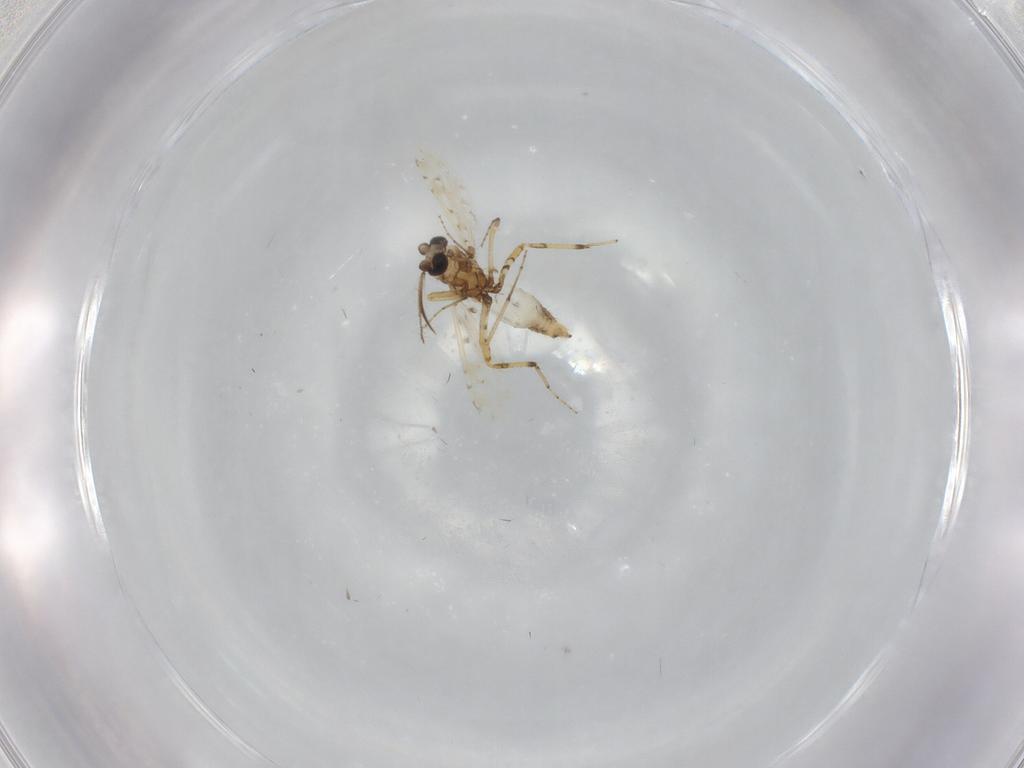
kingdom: Animalia
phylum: Arthropoda
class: Insecta
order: Diptera
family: Ceratopogonidae
